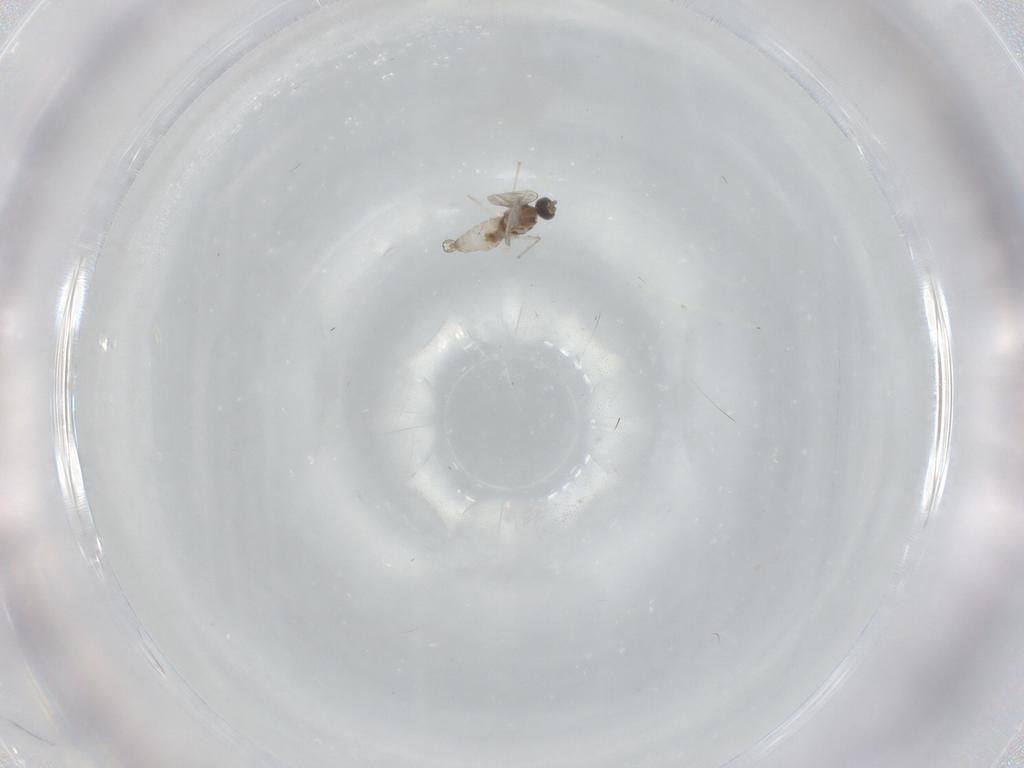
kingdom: Animalia
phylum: Arthropoda
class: Insecta
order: Diptera
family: Cecidomyiidae
